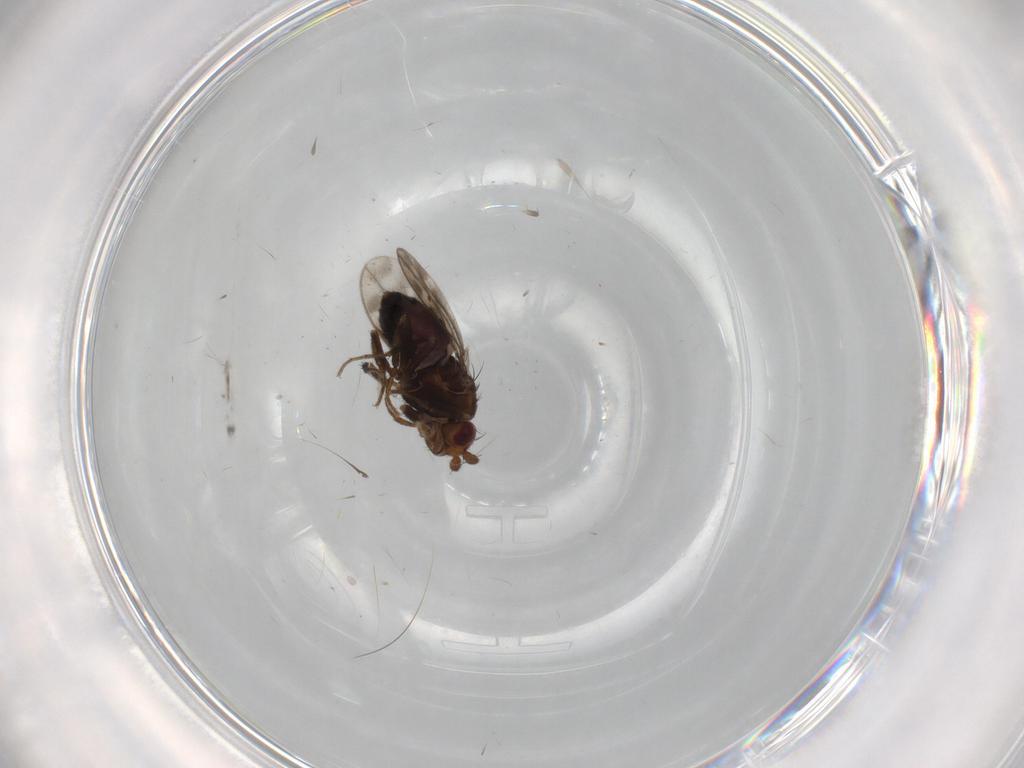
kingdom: Animalia
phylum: Arthropoda
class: Insecta
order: Diptera
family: Sphaeroceridae
